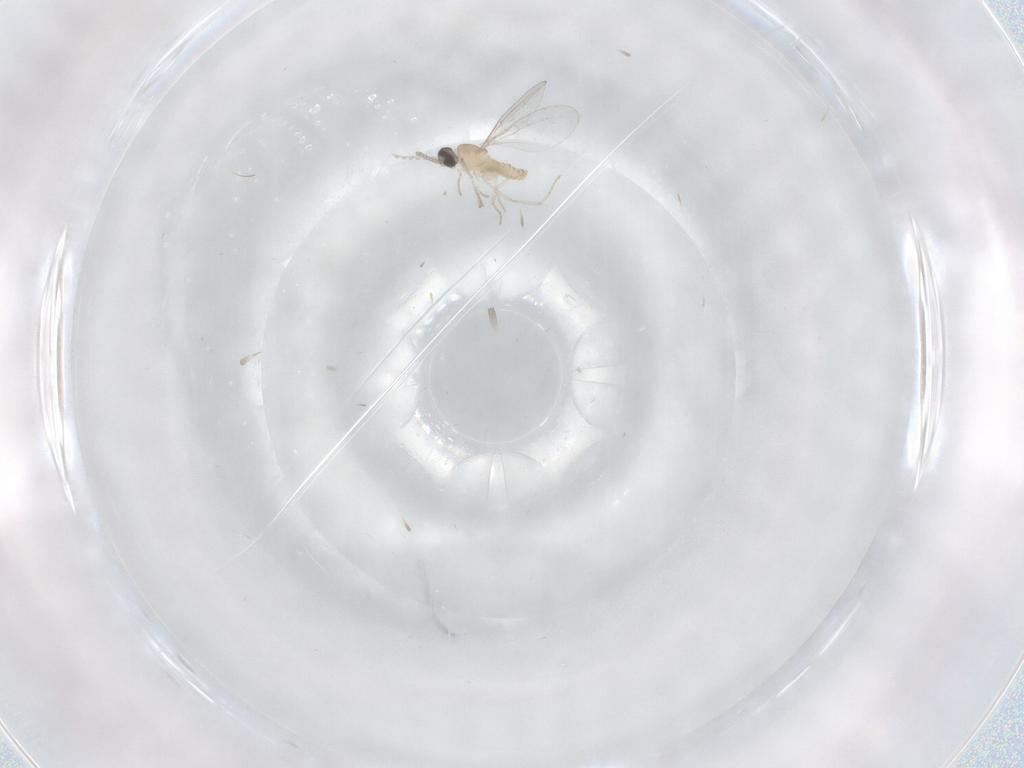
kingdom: Animalia
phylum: Arthropoda
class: Insecta
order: Diptera
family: Cecidomyiidae
